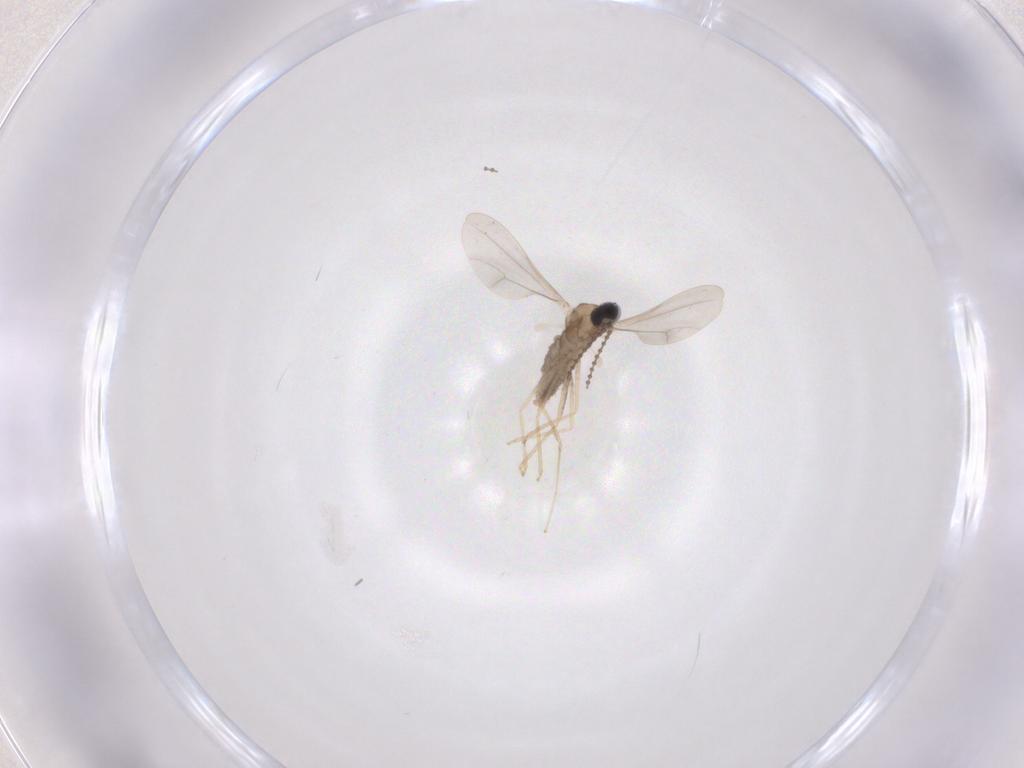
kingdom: Animalia
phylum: Arthropoda
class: Insecta
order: Diptera
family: Cecidomyiidae
